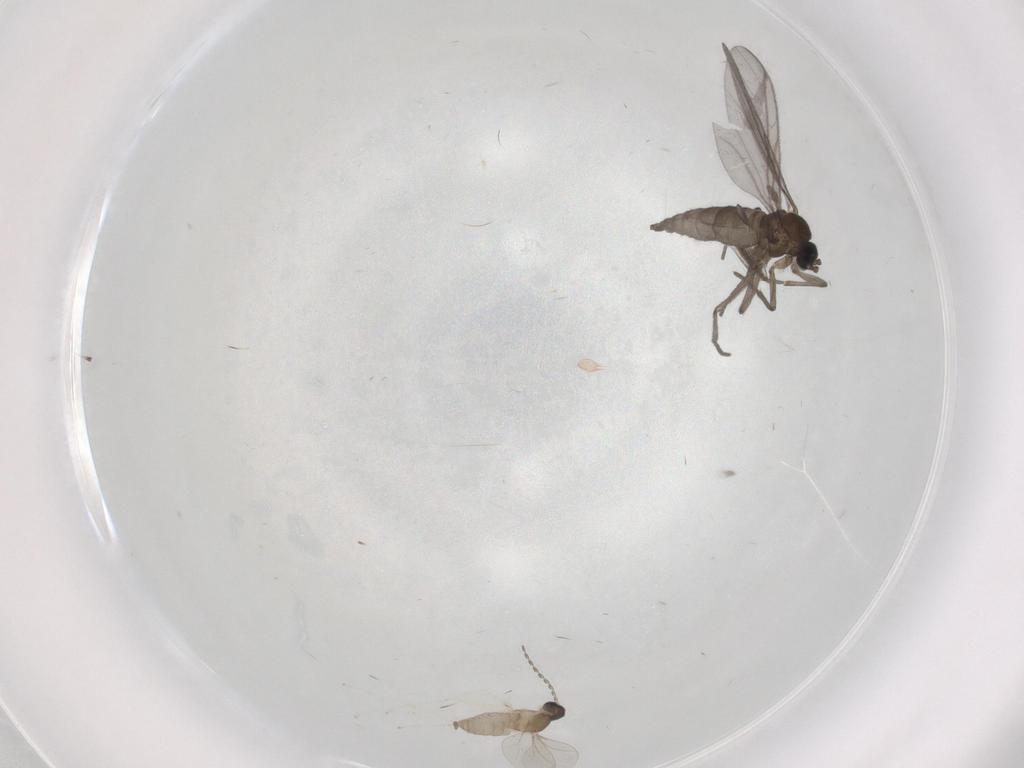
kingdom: Animalia
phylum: Arthropoda
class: Insecta
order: Diptera
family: Sciaridae
